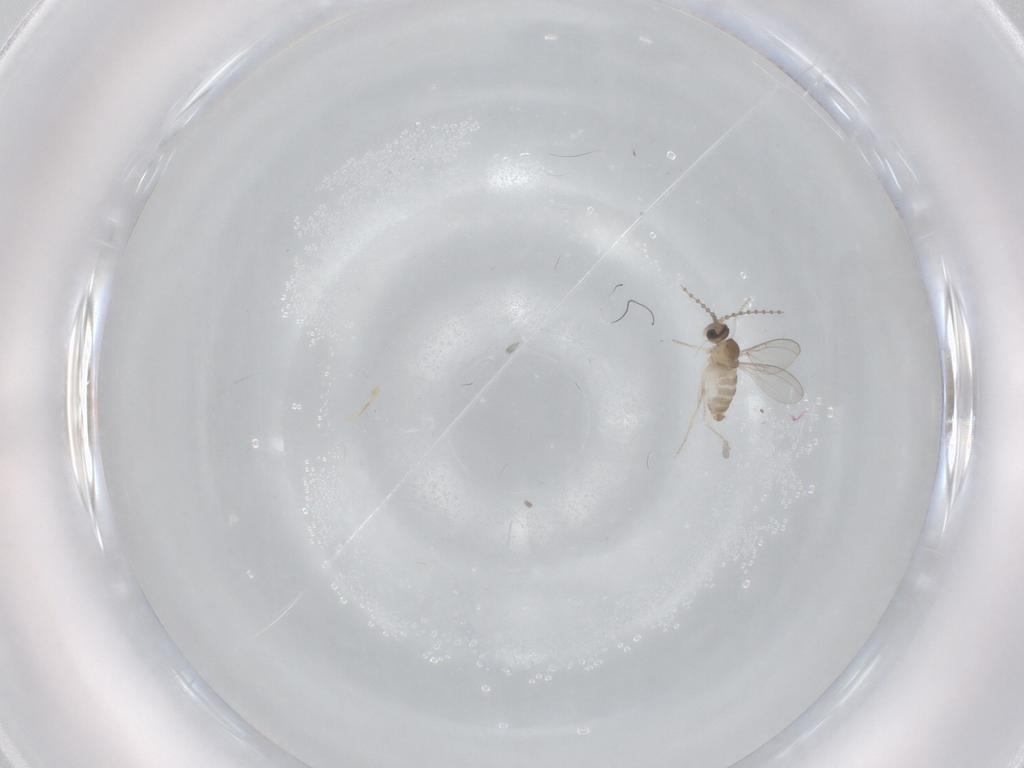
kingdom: Animalia
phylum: Arthropoda
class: Insecta
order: Diptera
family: Cecidomyiidae
